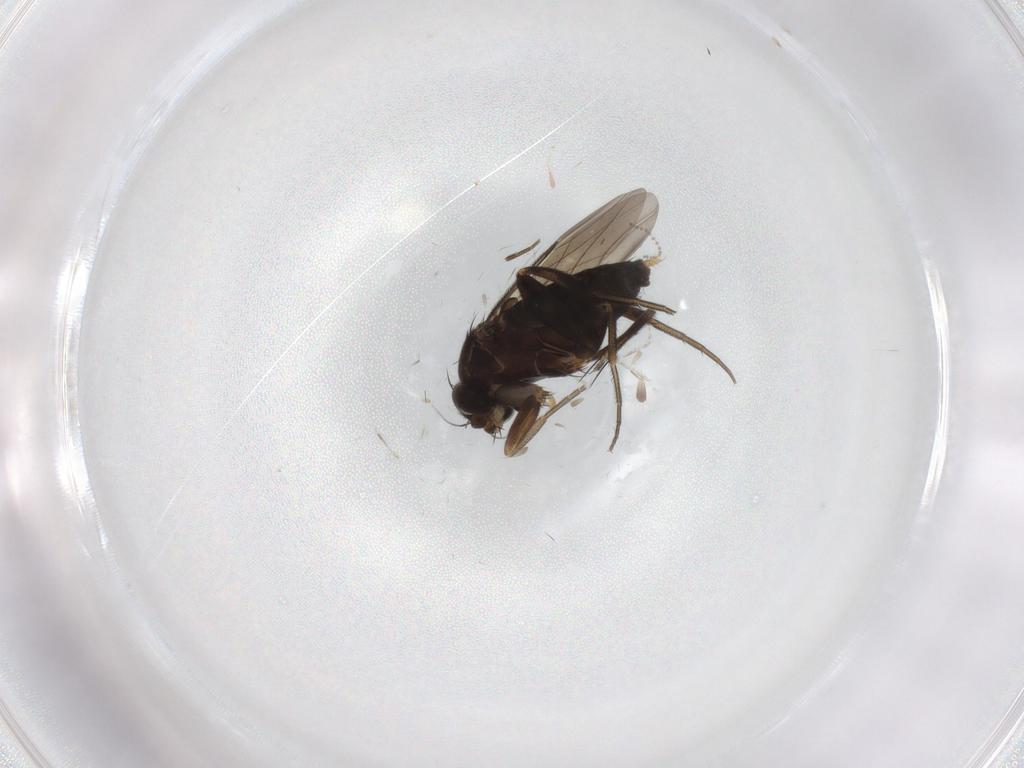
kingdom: Animalia
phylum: Arthropoda
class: Insecta
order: Diptera
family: Phoridae
